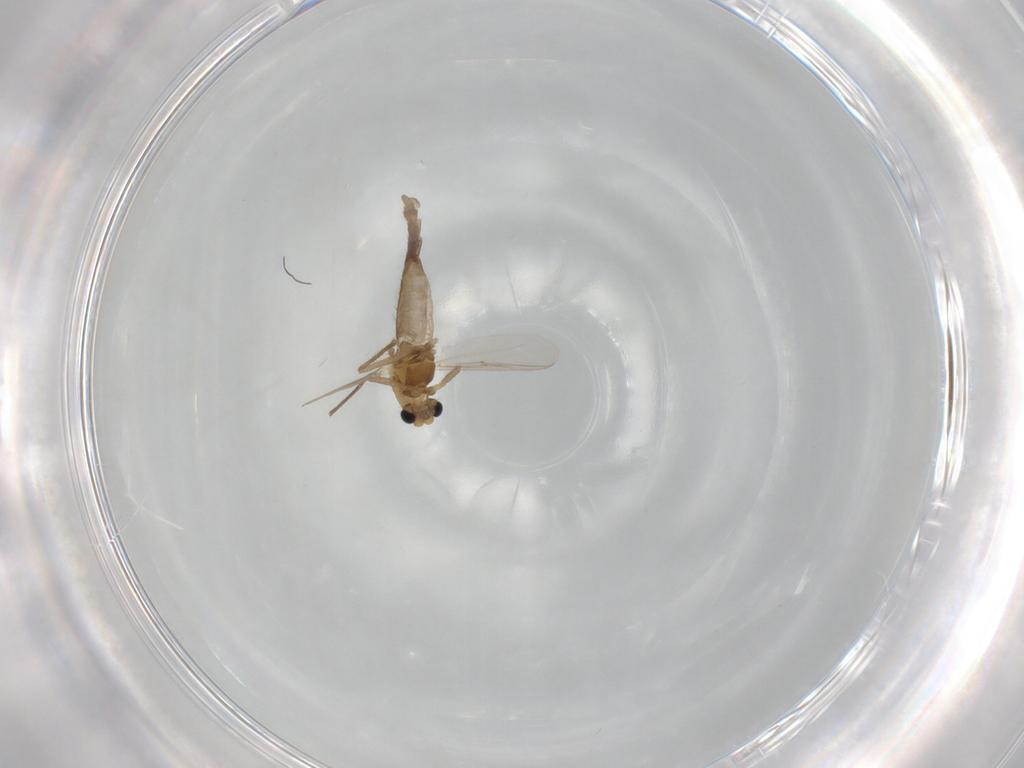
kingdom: Animalia
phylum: Arthropoda
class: Insecta
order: Diptera
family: Chironomidae
